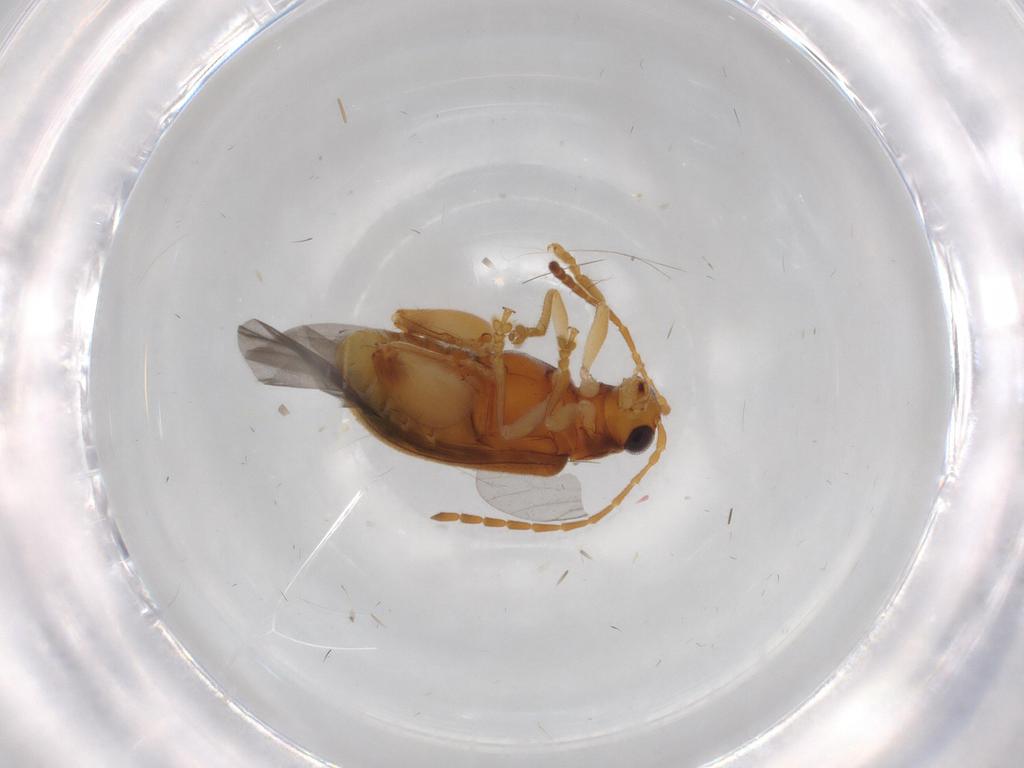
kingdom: Animalia
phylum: Arthropoda
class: Insecta
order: Coleoptera
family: Chrysomelidae
